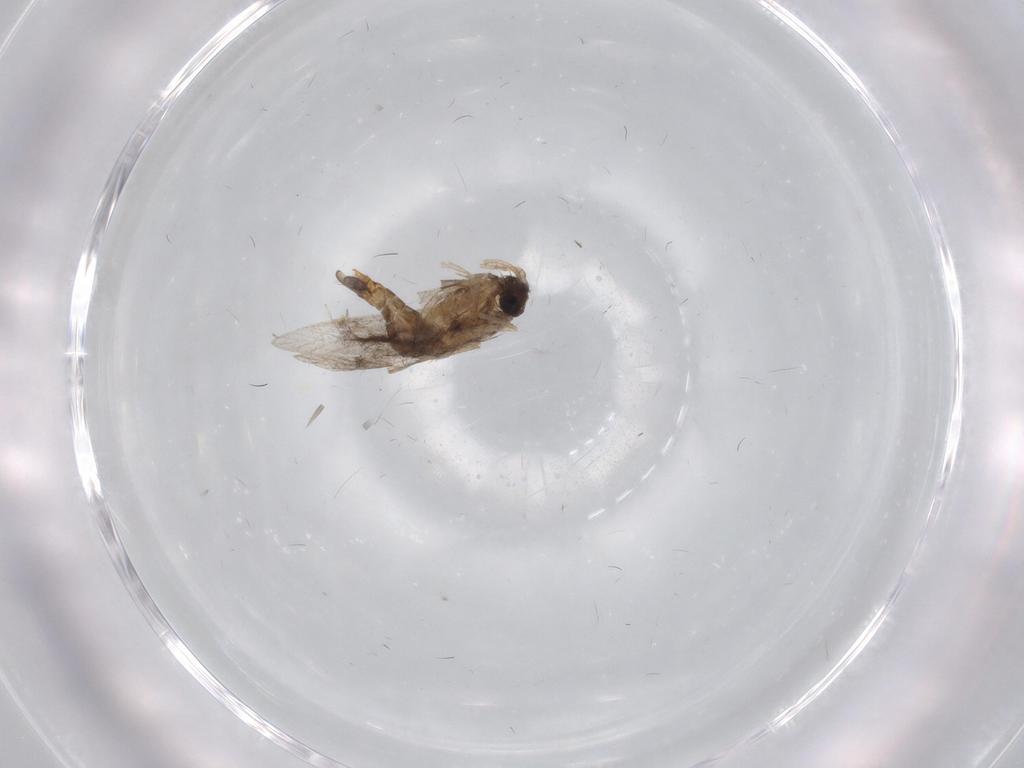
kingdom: Animalia
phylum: Arthropoda
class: Insecta
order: Diptera
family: Cecidomyiidae
